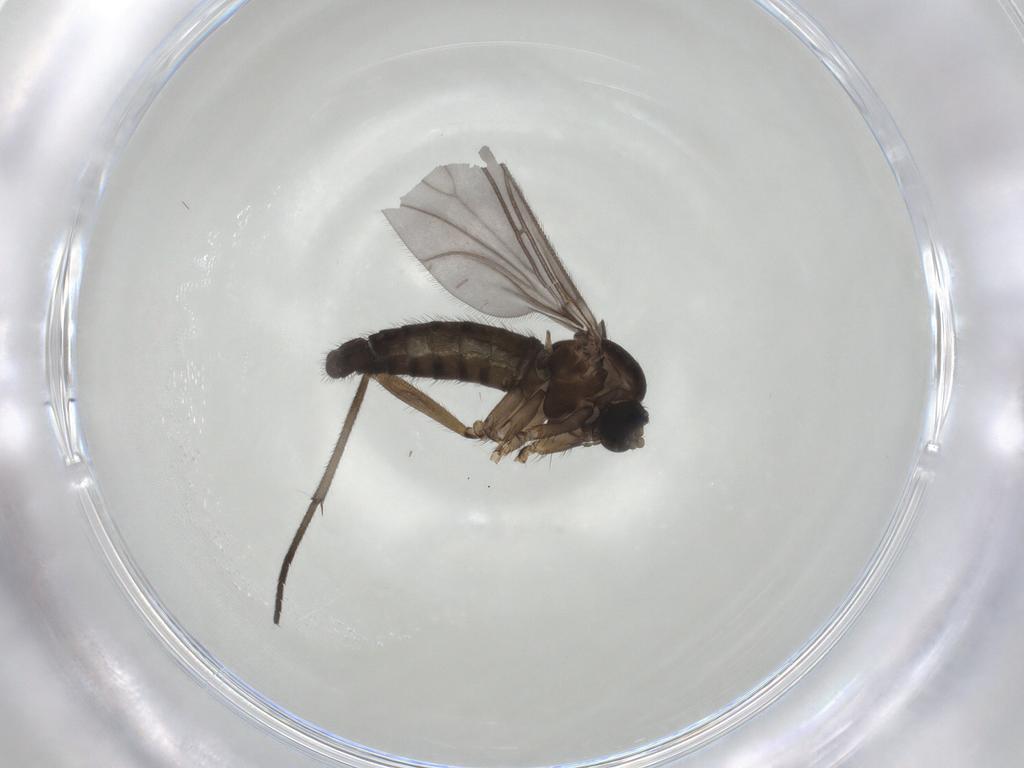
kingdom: Animalia
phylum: Arthropoda
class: Insecta
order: Diptera
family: Sciaridae
